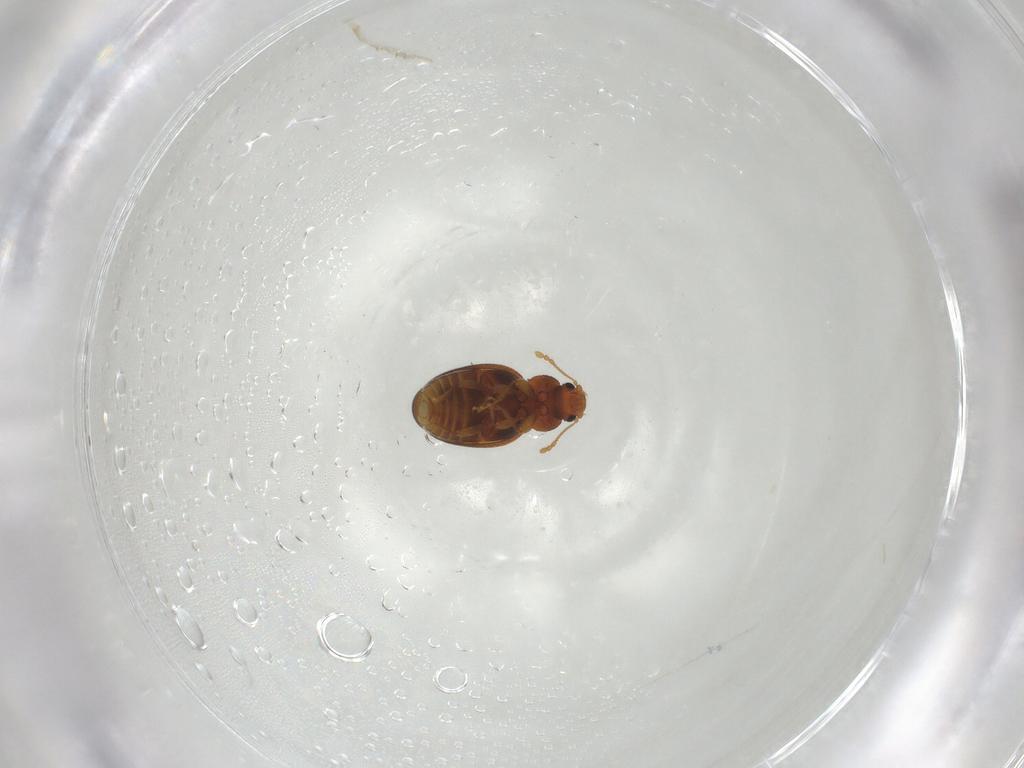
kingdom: Animalia
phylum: Arthropoda
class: Insecta
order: Coleoptera
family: Latridiidae
